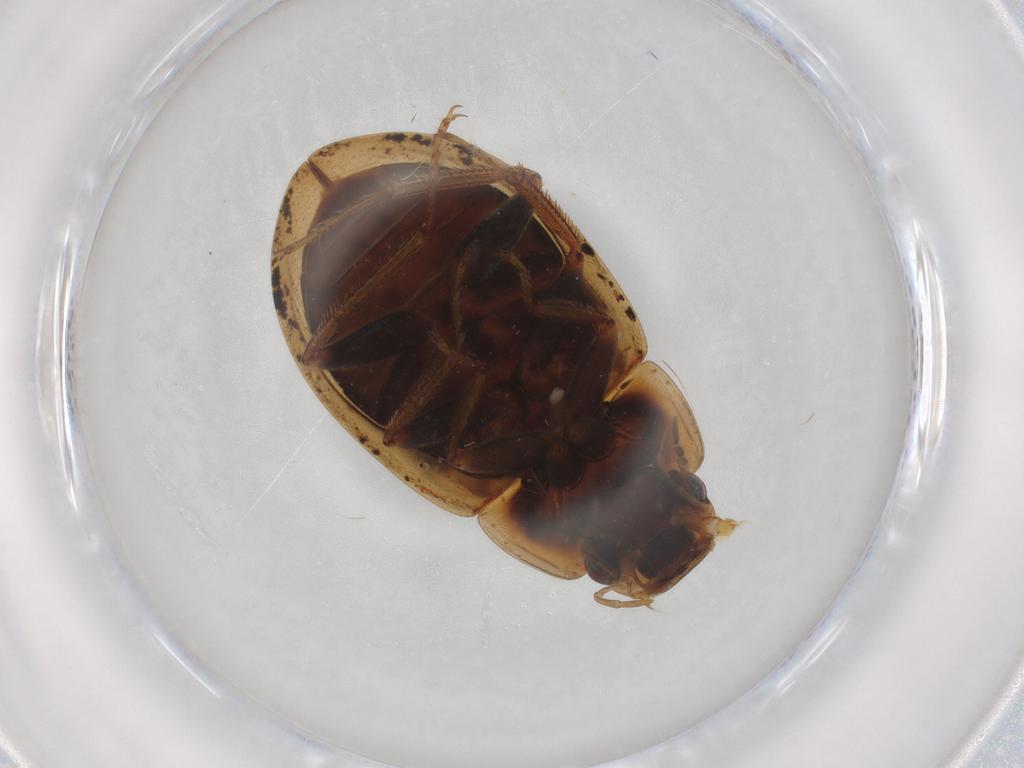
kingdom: Animalia
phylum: Arthropoda
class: Insecta
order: Coleoptera
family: Hydrophilidae
